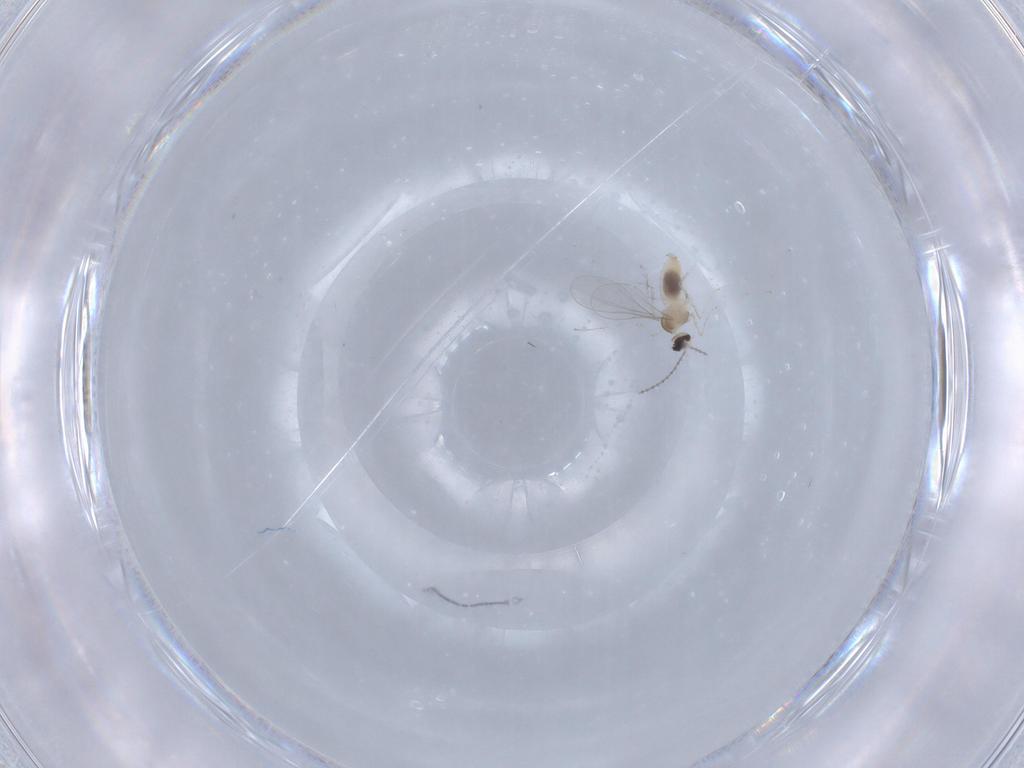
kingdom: Animalia
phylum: Arthropoda
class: Insecta
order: Diptera
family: Cecidomyiidae
